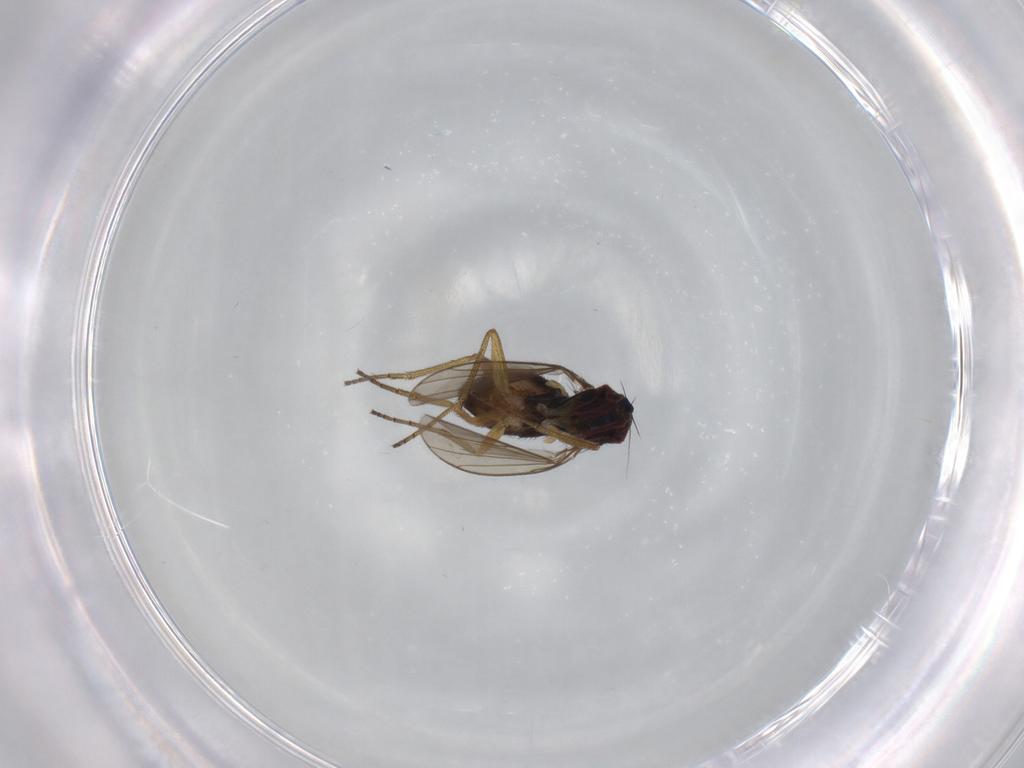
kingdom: Animalia
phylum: Arthropoda
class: Insecta
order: Diptera
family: Dolichopodidae
